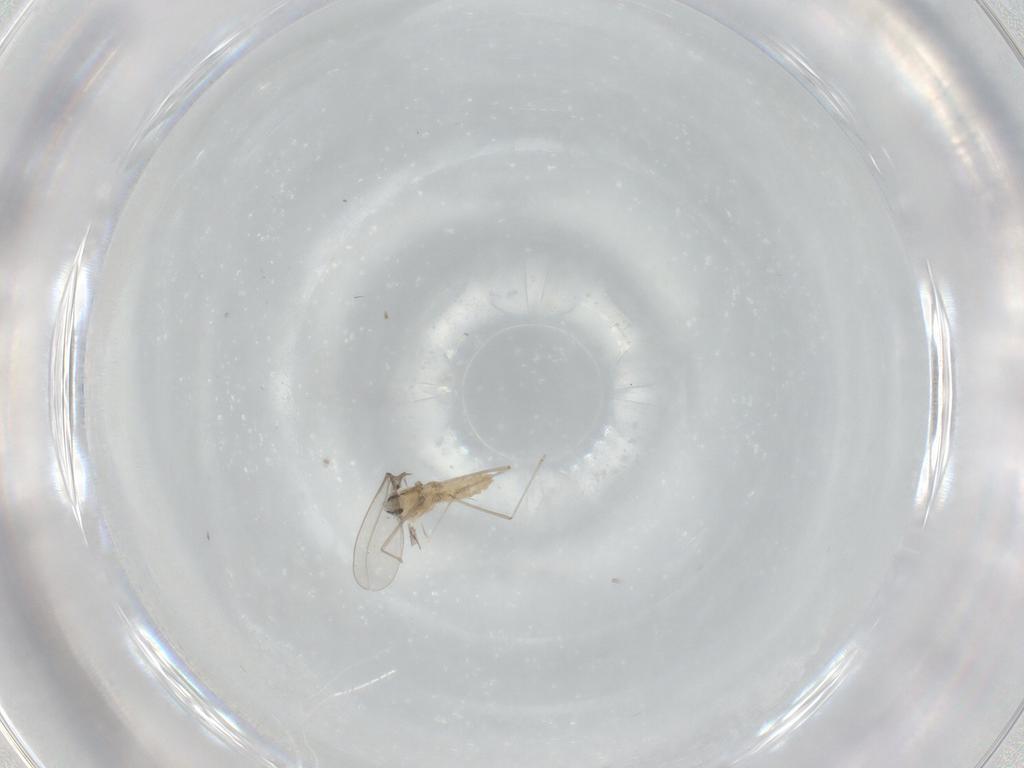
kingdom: Animalia
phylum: Arthropoda
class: Insecta
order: Diptera
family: Cecidomyiidae
